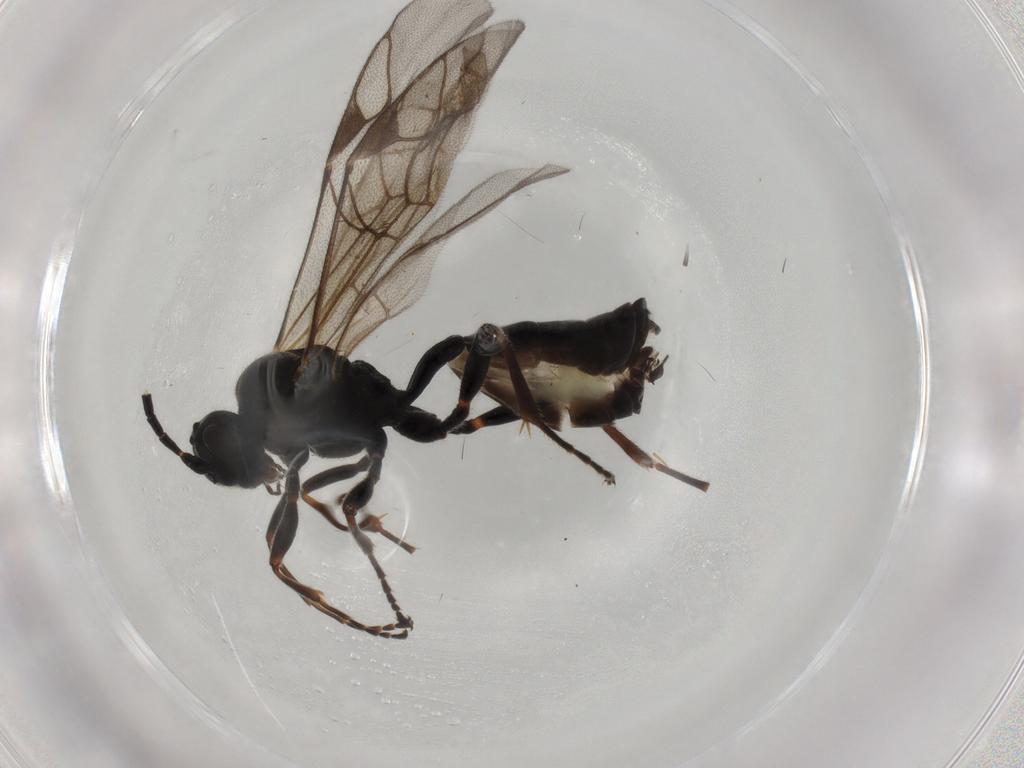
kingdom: Animalia
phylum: Arthropoda
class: Insecta
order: Hymenoptera
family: Ichneumonidae
